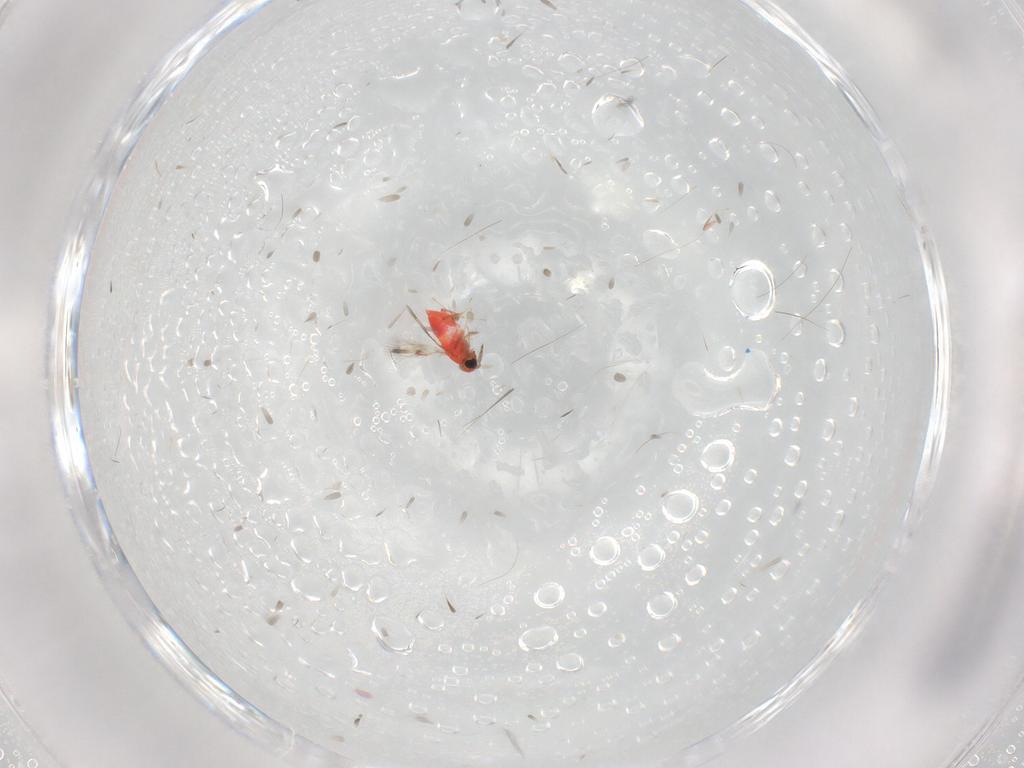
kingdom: Animalia
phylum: Arthropoda
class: Insecta
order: Hymenoptera
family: Trichogrammatidae
